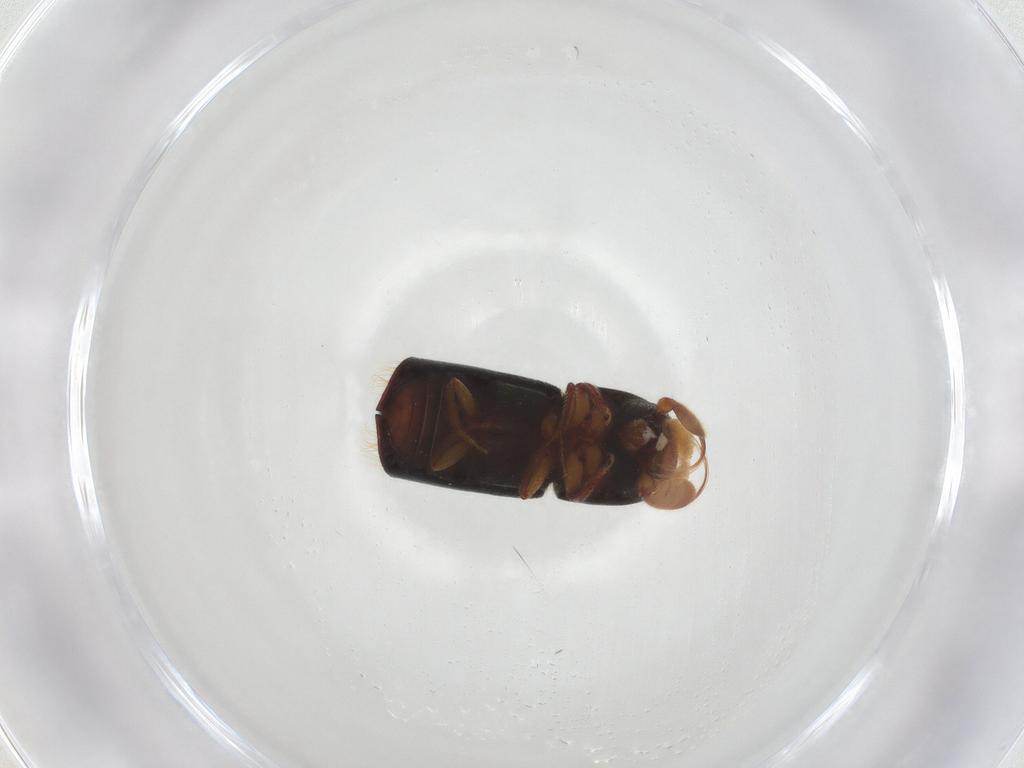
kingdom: Animalia
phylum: Arthropoda
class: Insecta
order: Coleoptera
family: Curculionidae
